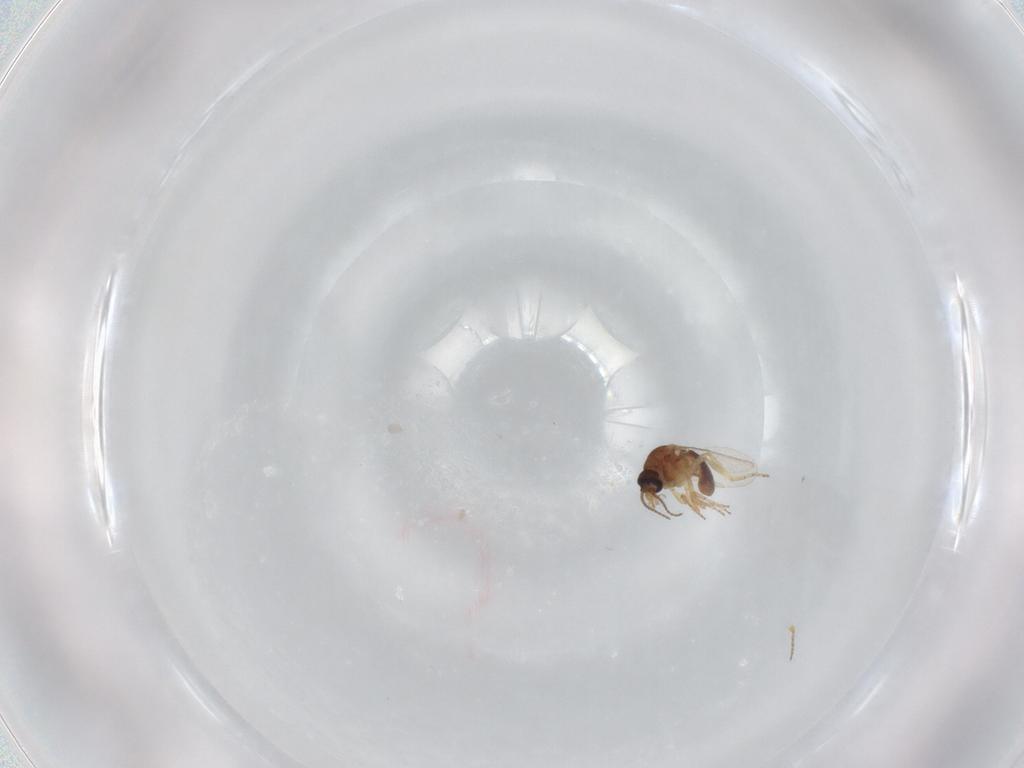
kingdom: Animalia
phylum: Arthropoda
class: Insecta
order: Diptera
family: Ceratopogonidae
